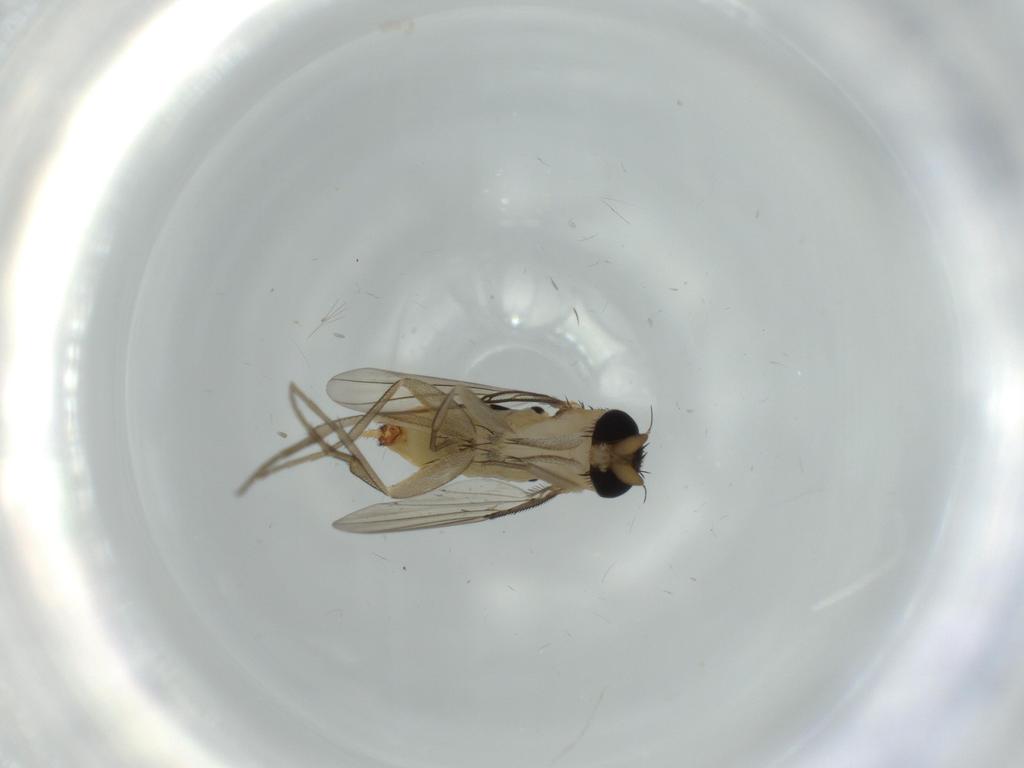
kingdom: Animalia
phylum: Arthropoda
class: Insecta
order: Diptera
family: Phoridae
